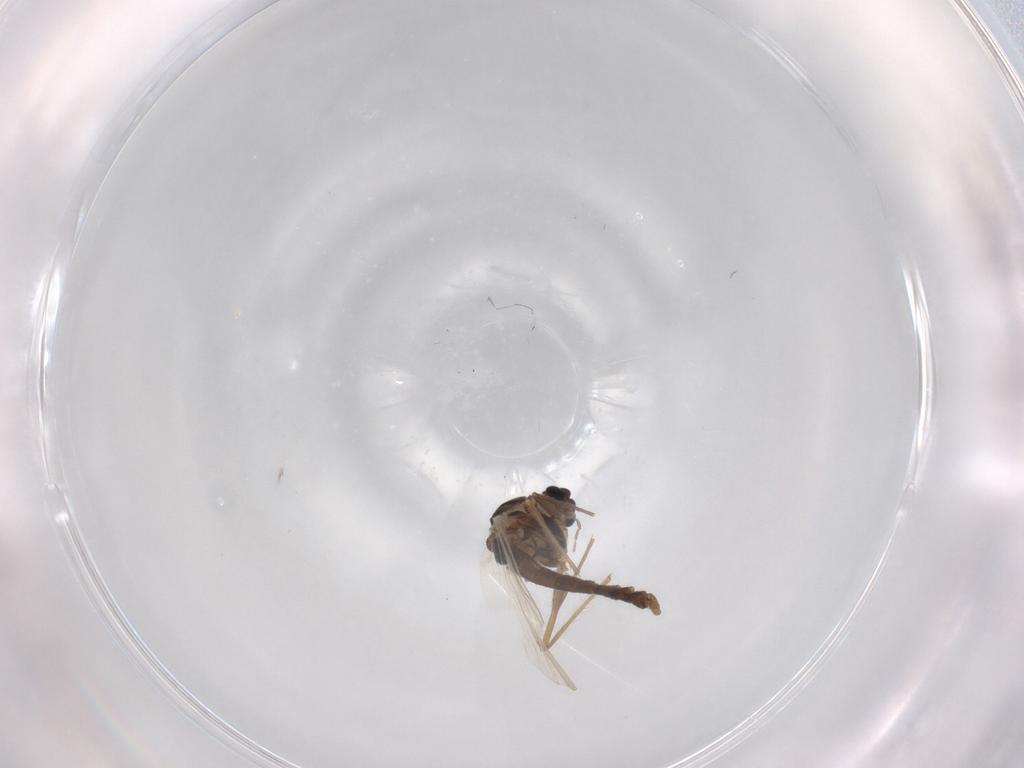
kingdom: Animalia
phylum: Arthropoda
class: Insecta
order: Diptera
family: Chironomidae
